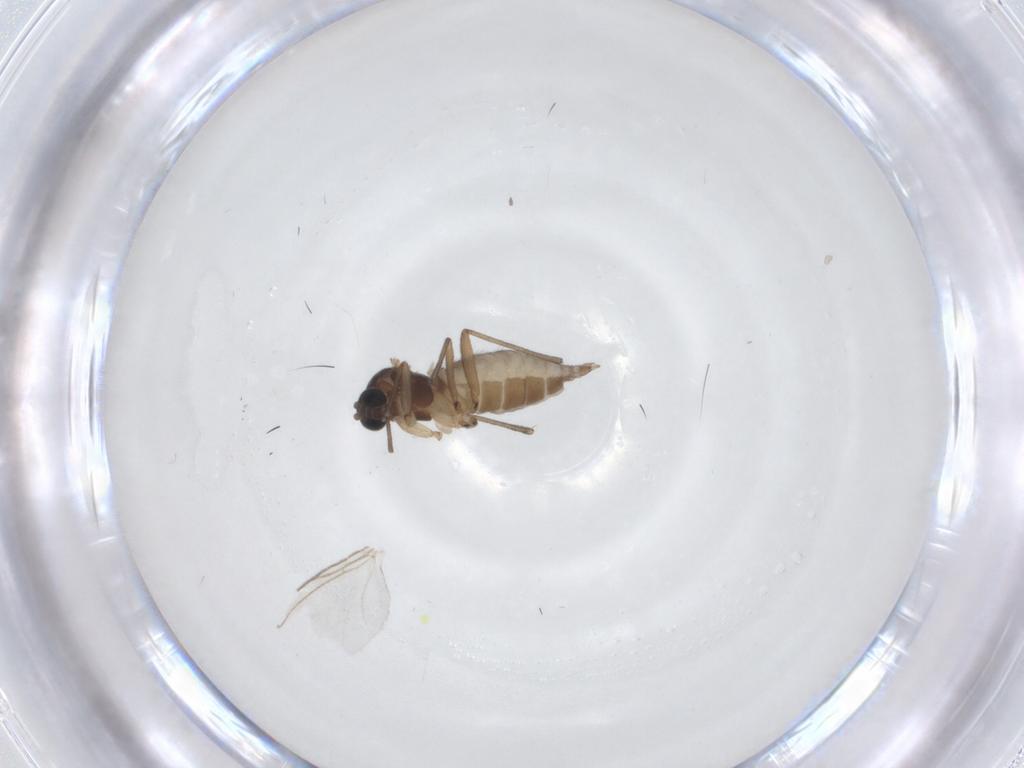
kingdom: Animalia
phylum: Arthropoda
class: Insecta
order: Diptera
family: Sciaridae
